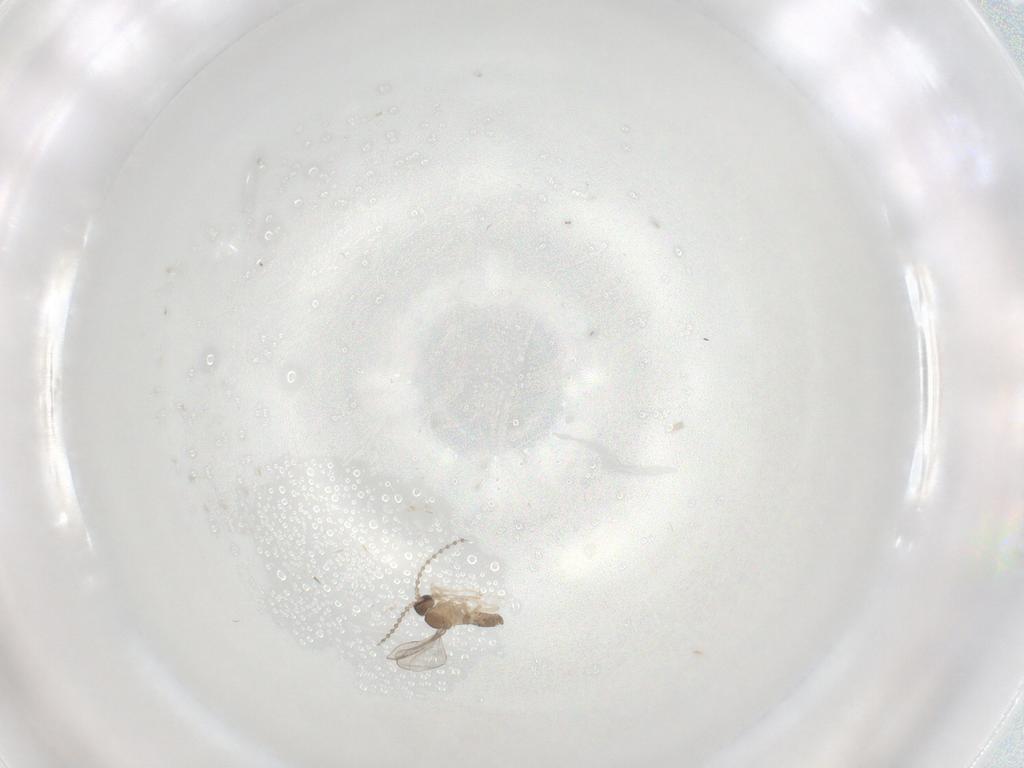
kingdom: Animalia
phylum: Arthropoda
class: Insecta
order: Diptera
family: Cecidomyiidae
